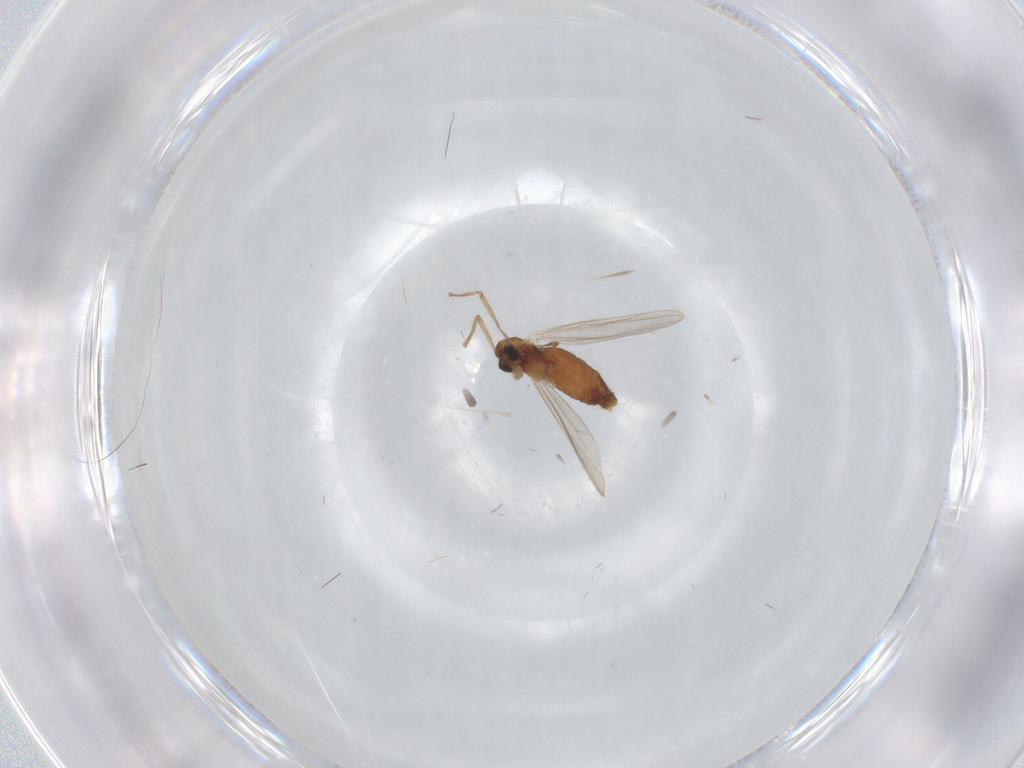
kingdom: Animalia
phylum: Arthropoda
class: Insecta
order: Diptera
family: Chironomidae
